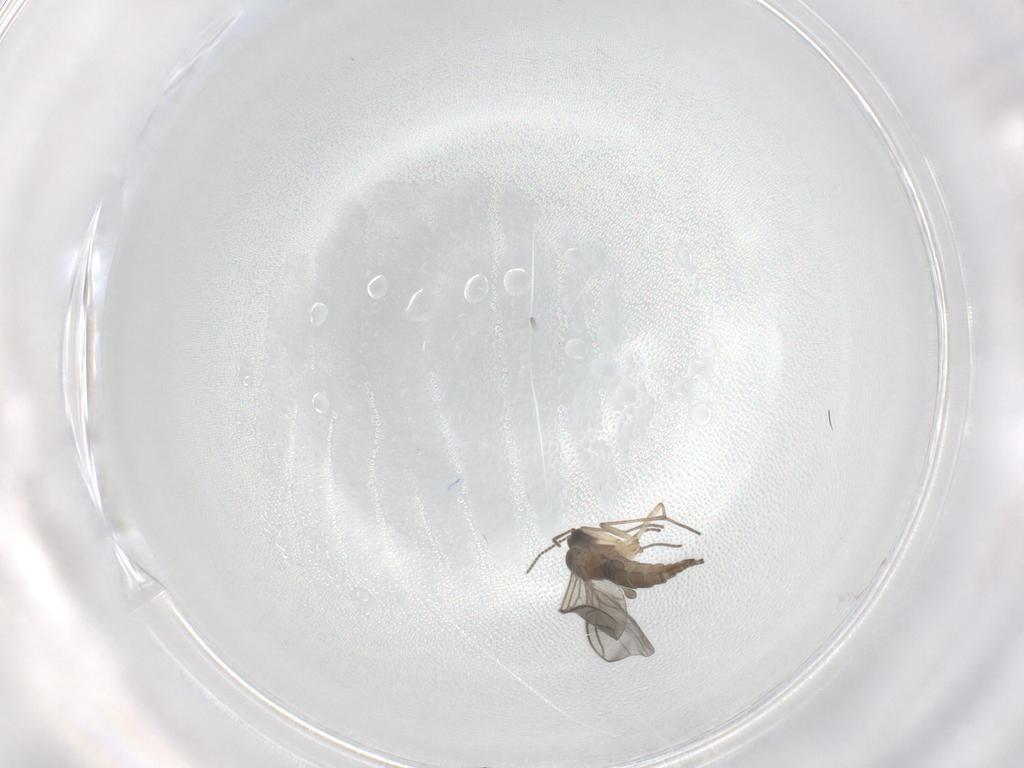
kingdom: Animalia
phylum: Arthropoda
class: Insecta
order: Diptera
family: Sciaridae
